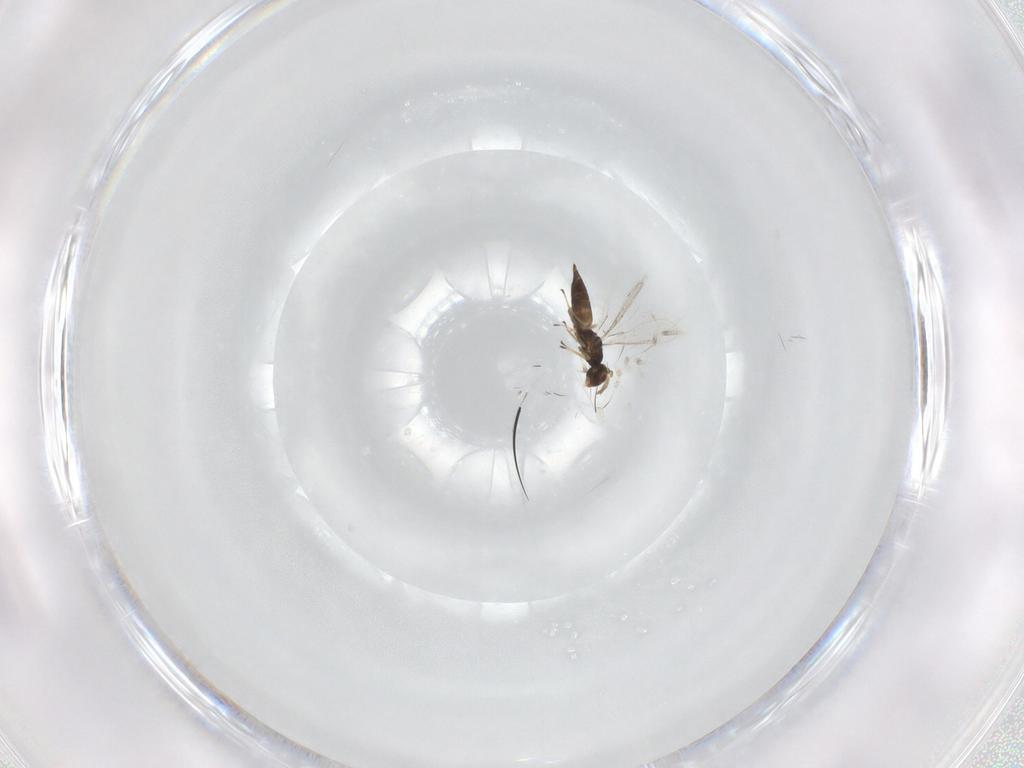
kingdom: Animalia
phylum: Arthropoda
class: Insecta
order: Hymenoptera
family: Eulophidae
